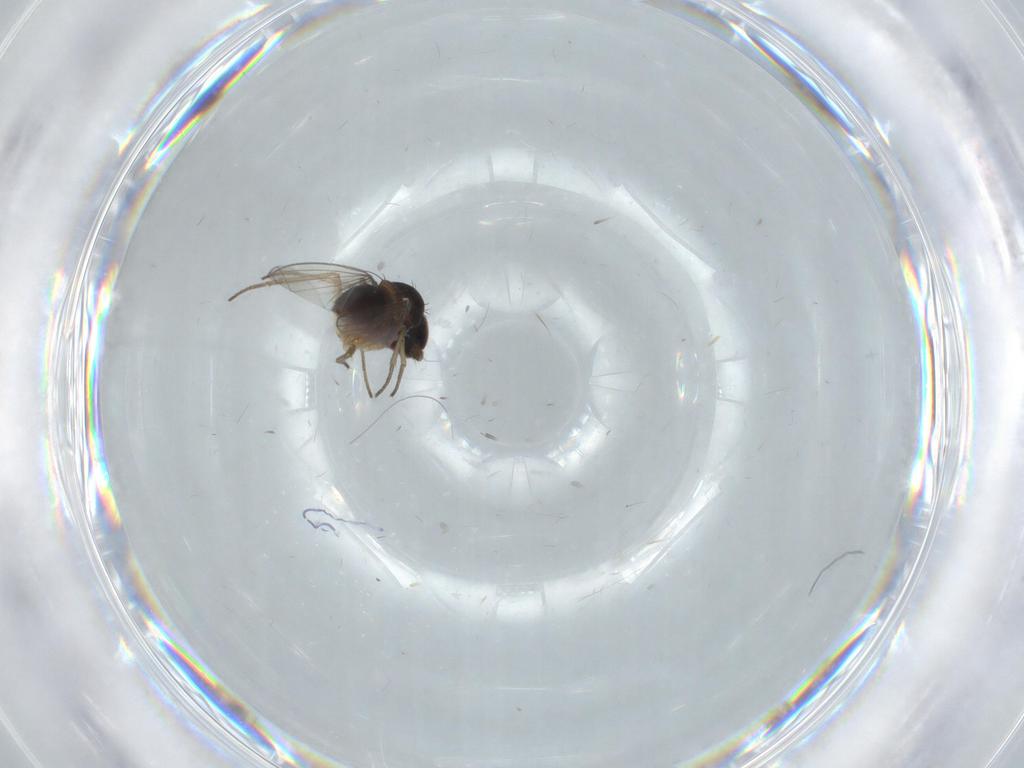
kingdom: Animalia
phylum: Arthropoda
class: Insecta
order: Diptera
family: Dolichopodidae
